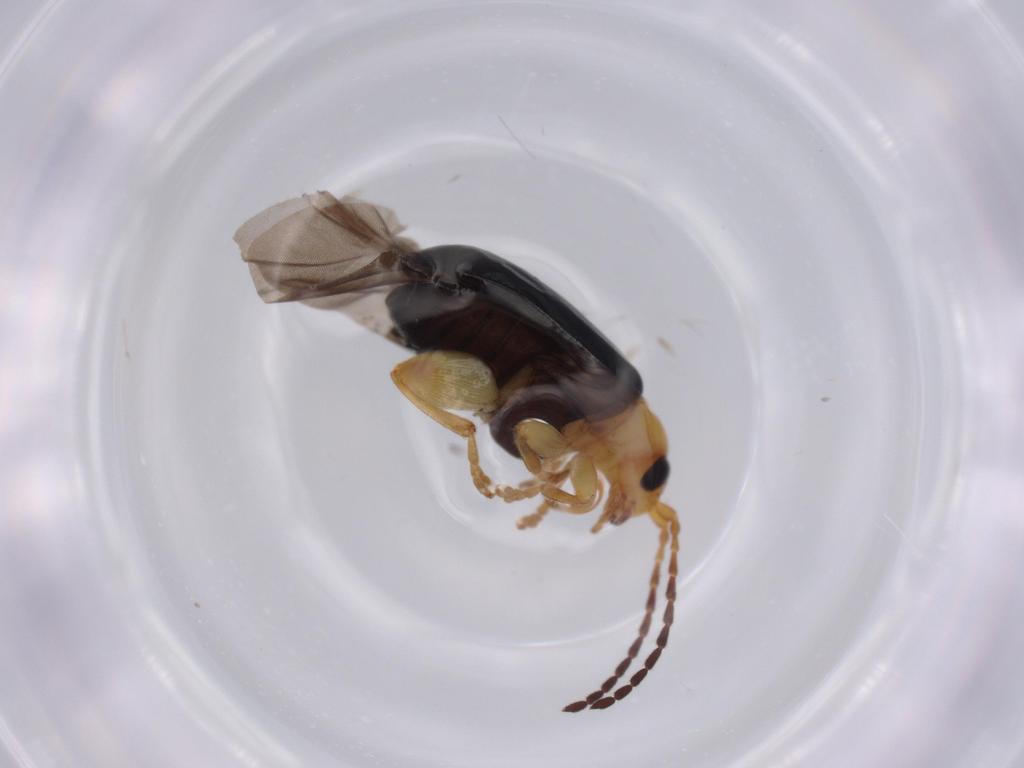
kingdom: Animalia
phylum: Arthropoda
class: Insecta
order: Coleoptera
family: Chrysomelidae
